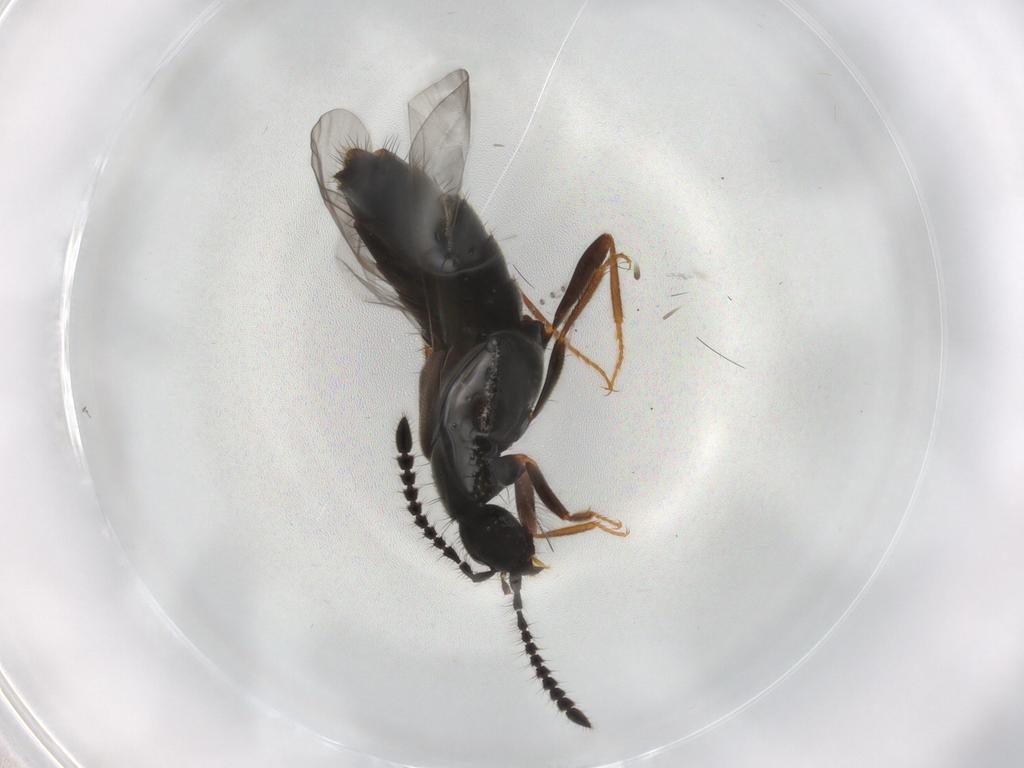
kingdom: Animalia
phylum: Arthropoda
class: Insecta
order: Coleoptera
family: Staphylinidae
